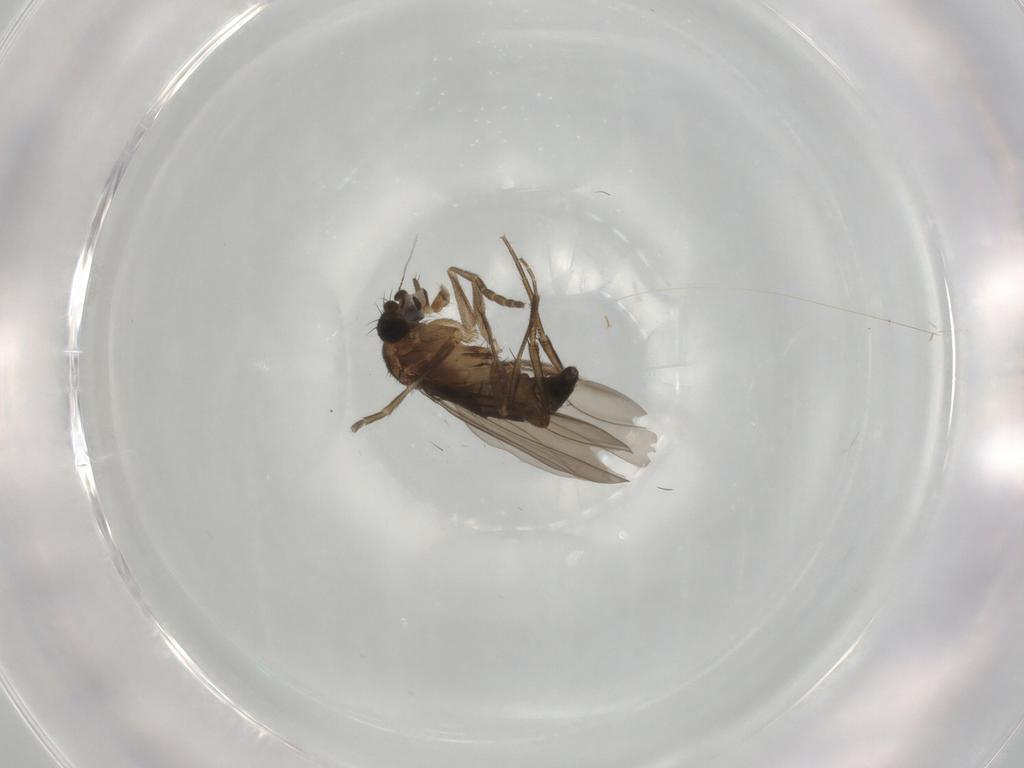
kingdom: Animalia
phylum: Arthropoda
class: Insecta
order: Diptera
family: Phoridae
